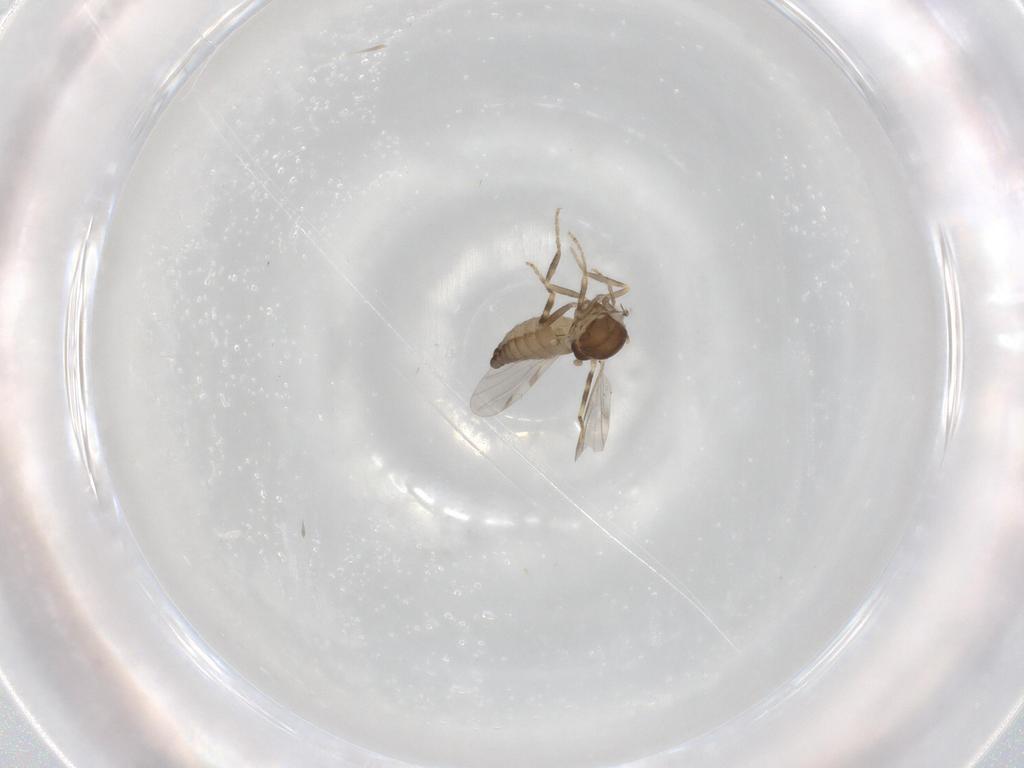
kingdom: Animalia
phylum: Arthropoda
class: Insecta
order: Diptera
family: Ceratopogonidae
